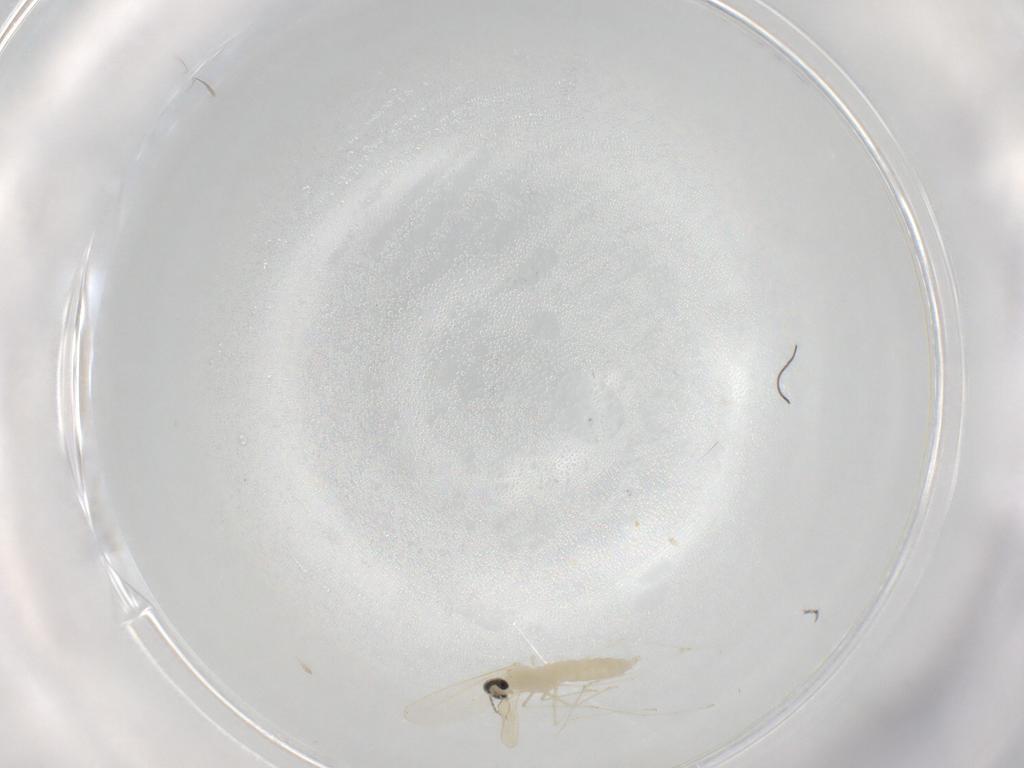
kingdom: Animalia
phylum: Arthropoda
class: Insecta
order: Diptera
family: Cecidomyiidae
